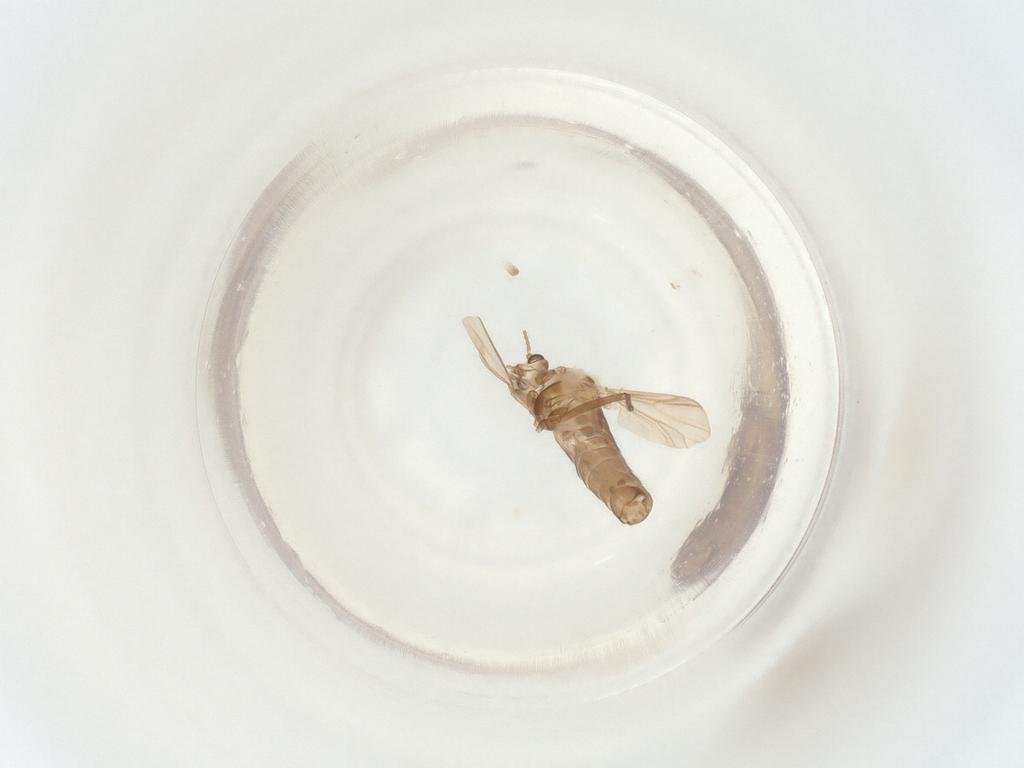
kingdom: Animalia
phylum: Arthropoda
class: Insecta
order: Diptera
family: Chironomidae
